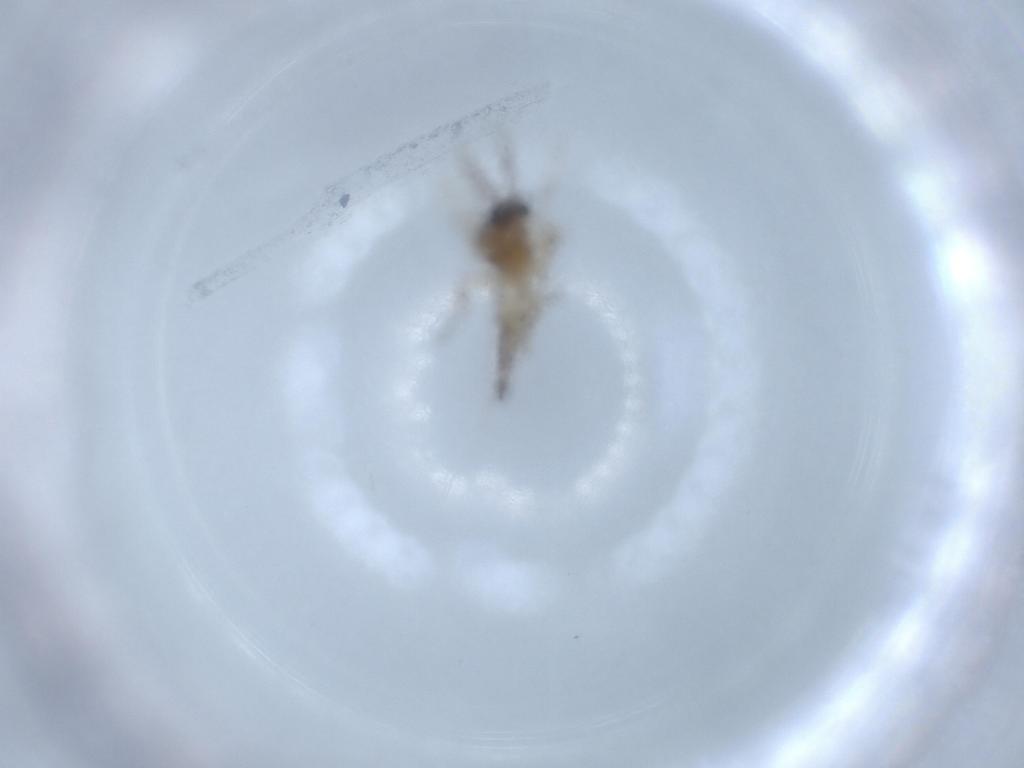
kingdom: Animalia
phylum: Arthropoda
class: Insecta
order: Diptera
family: Ceratopogonidae
